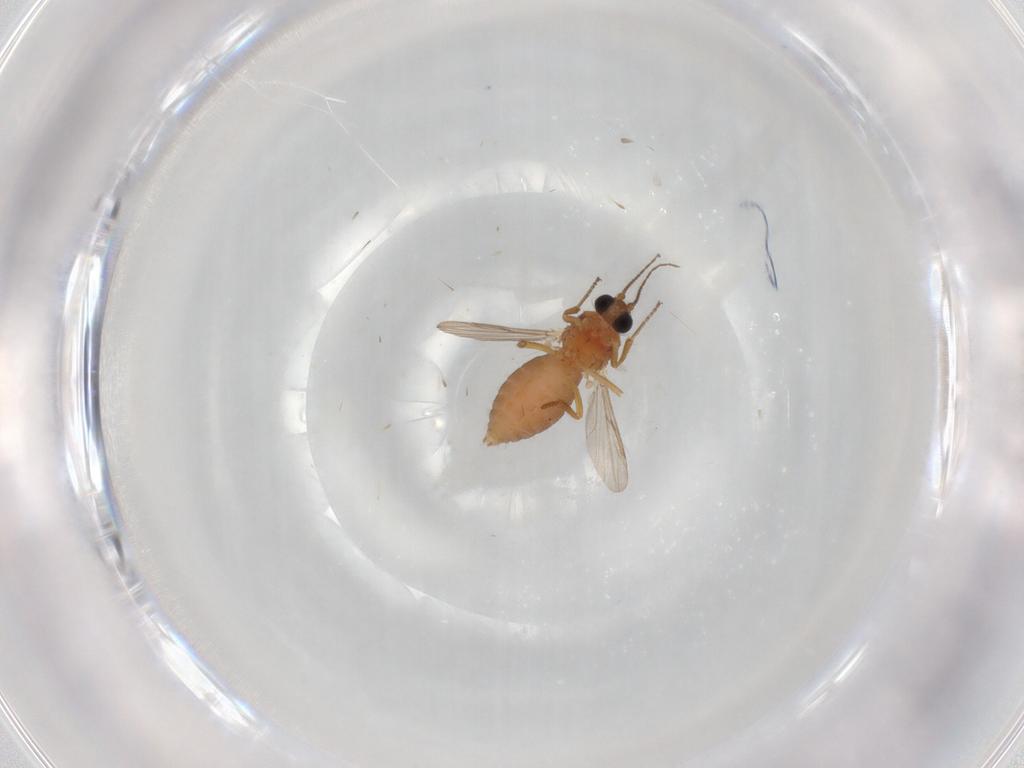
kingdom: Animalia
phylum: Arthropoda
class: Insecta
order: Diptera
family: Ceratopogonidae
